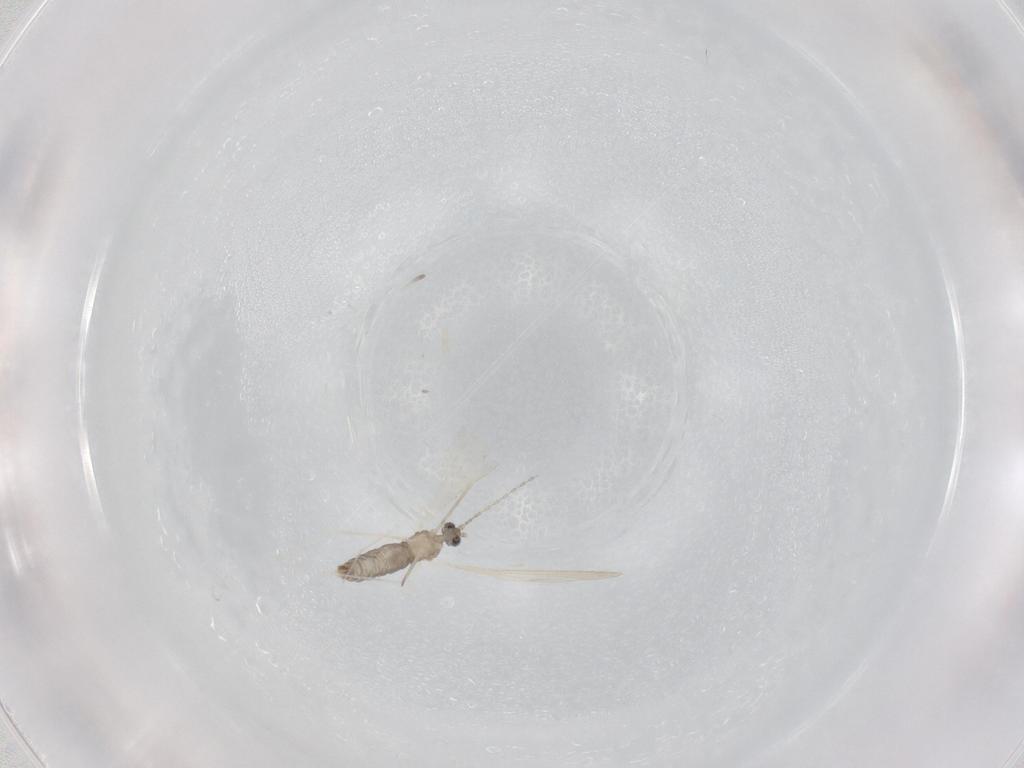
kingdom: Animalia
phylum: Arthropoda
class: Insecta
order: Diptera
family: Cecidomyiidae
